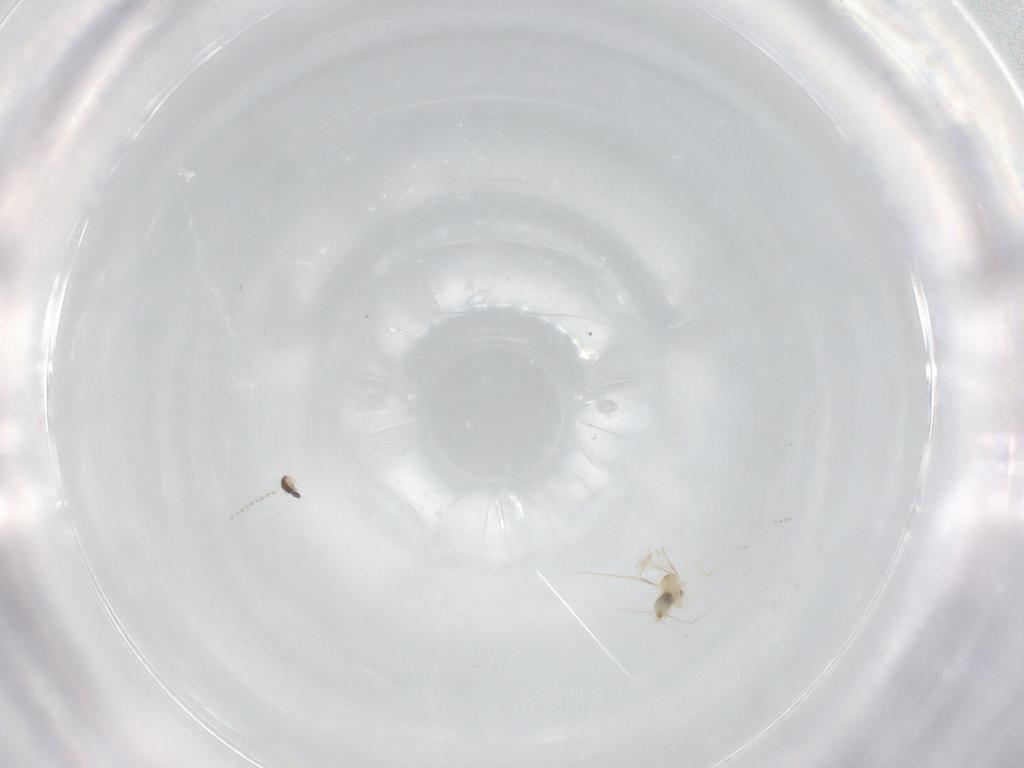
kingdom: Animalia
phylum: Arthropoda
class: Insecta
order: Diptera
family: Cecidomyiidae
